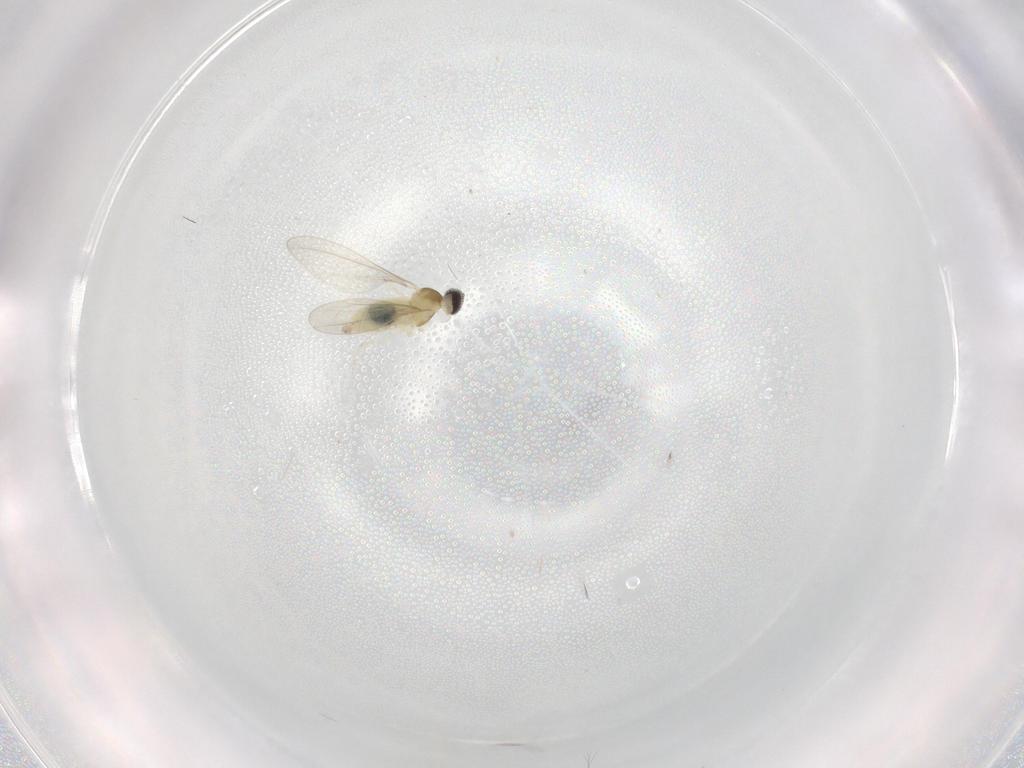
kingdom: Animalia
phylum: Arthropoda
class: Insecta
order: Diptera
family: Cecidomyiidae
